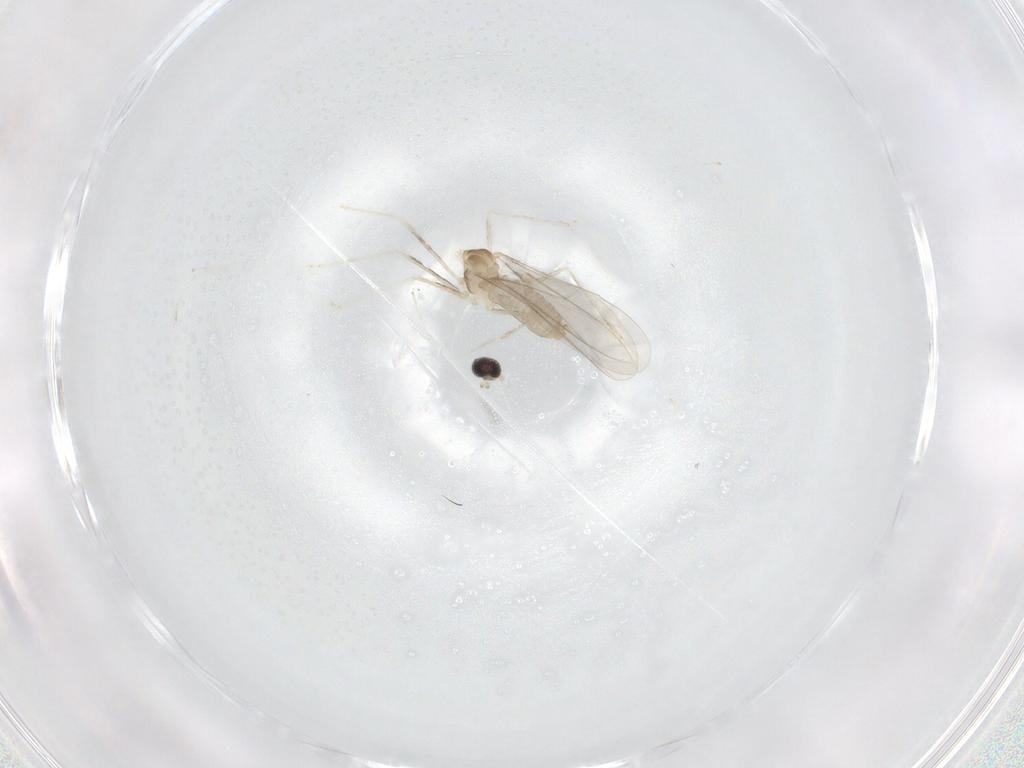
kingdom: Animalia
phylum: Arthropoda
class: Insecta
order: Diptera
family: Cecidomyiidae
